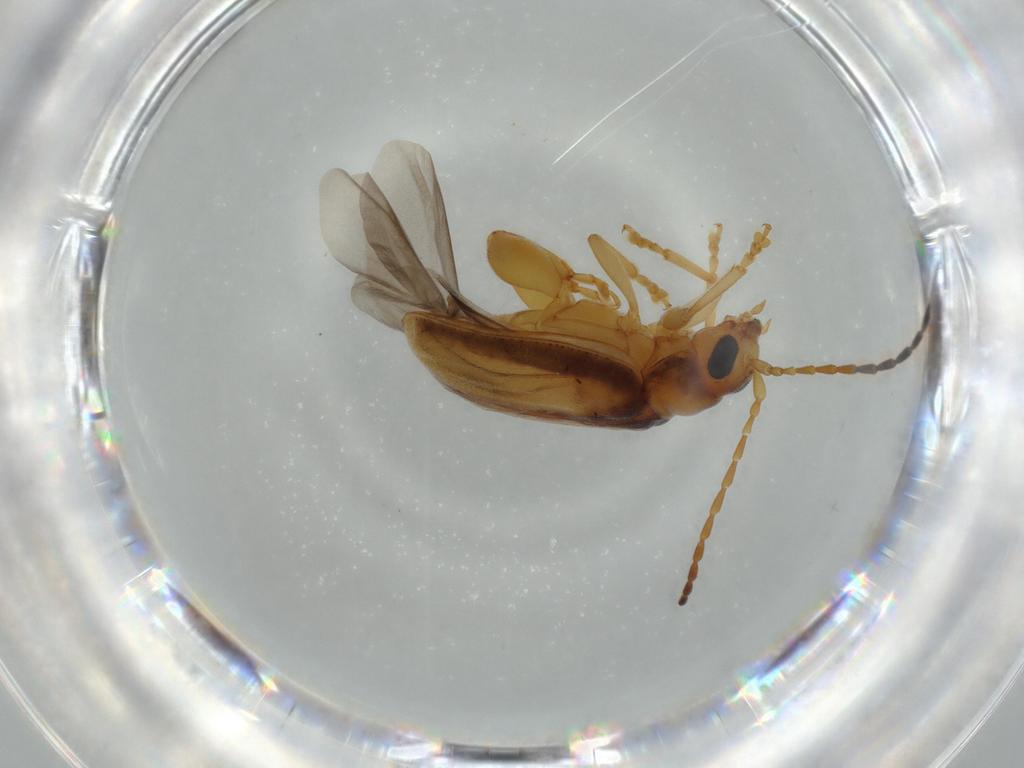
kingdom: Animalia
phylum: Arthropoda
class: Insecta
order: Coleoptera
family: Chrysomelidae
